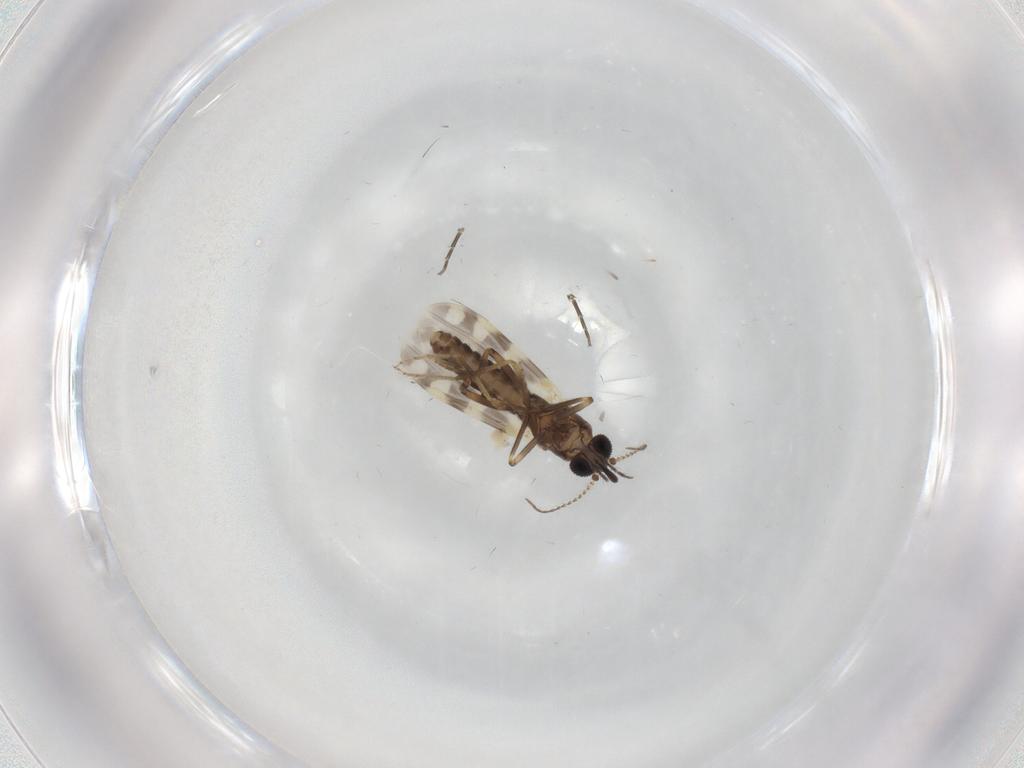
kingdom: Animalia
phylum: Arthropoda
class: Insecta
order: Diptera
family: Ceratopogonidae
